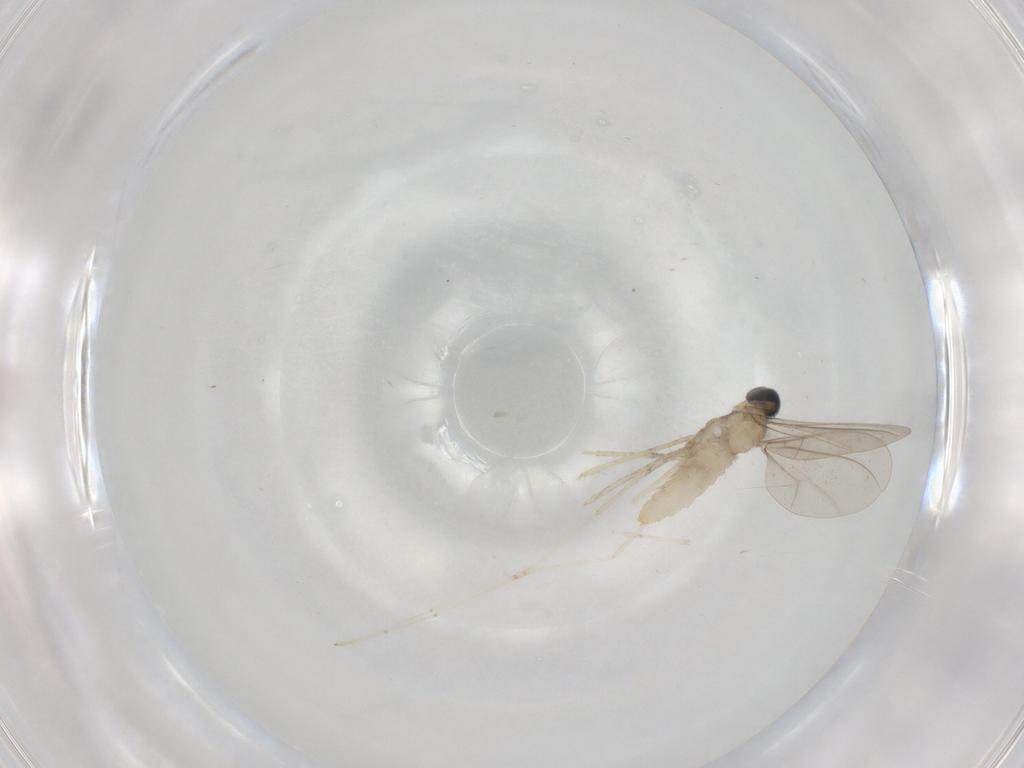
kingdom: Animalia
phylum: Arthropoda
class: Insecta
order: Diptera
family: Cecidomyiidae
